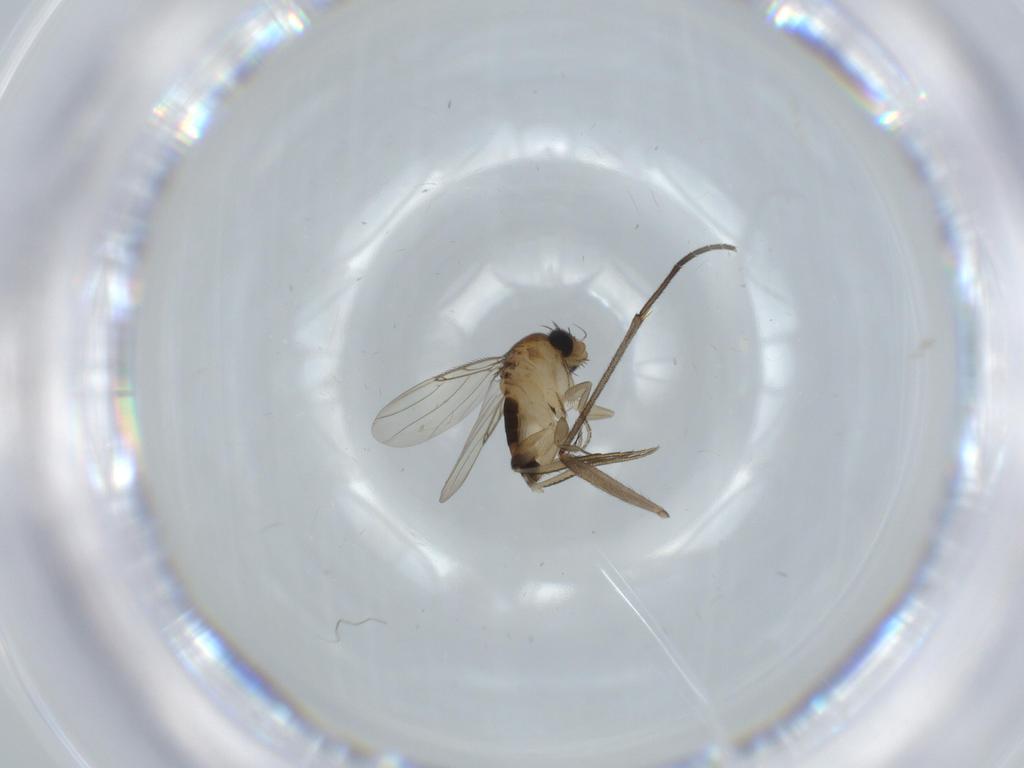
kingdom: Animalia
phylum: Arthropoda
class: Insecta
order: Diptera
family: Phoridae
